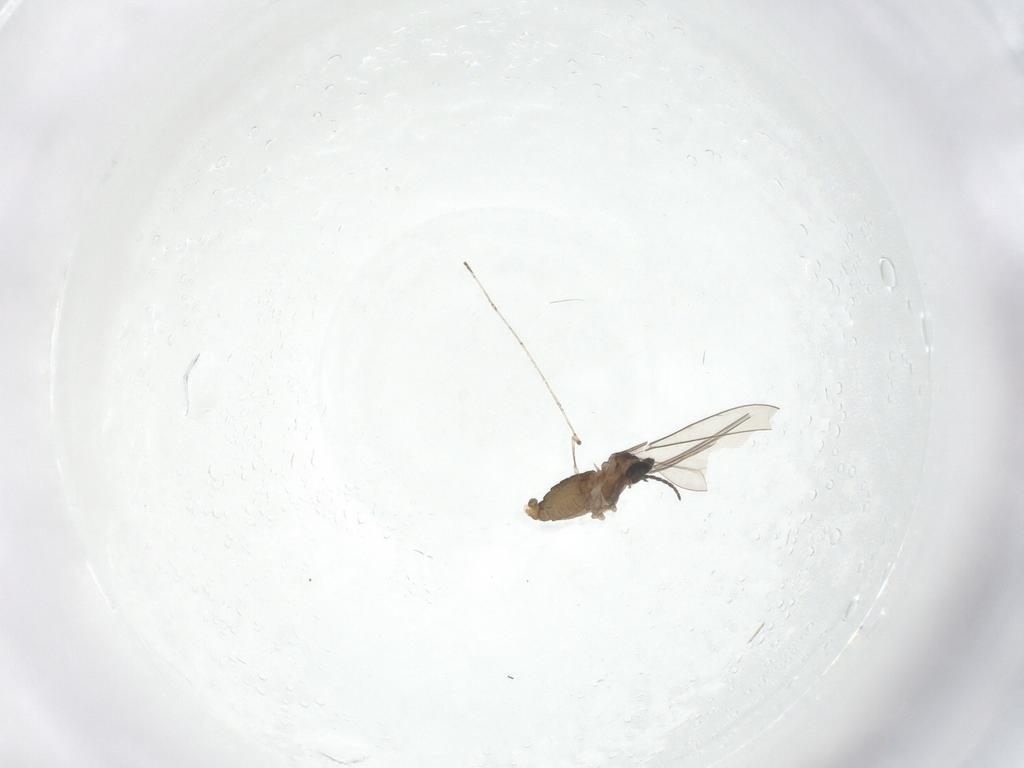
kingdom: Animalia
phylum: Arthropoda
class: Insecta
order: Diptera
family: Cecidomyiidae
